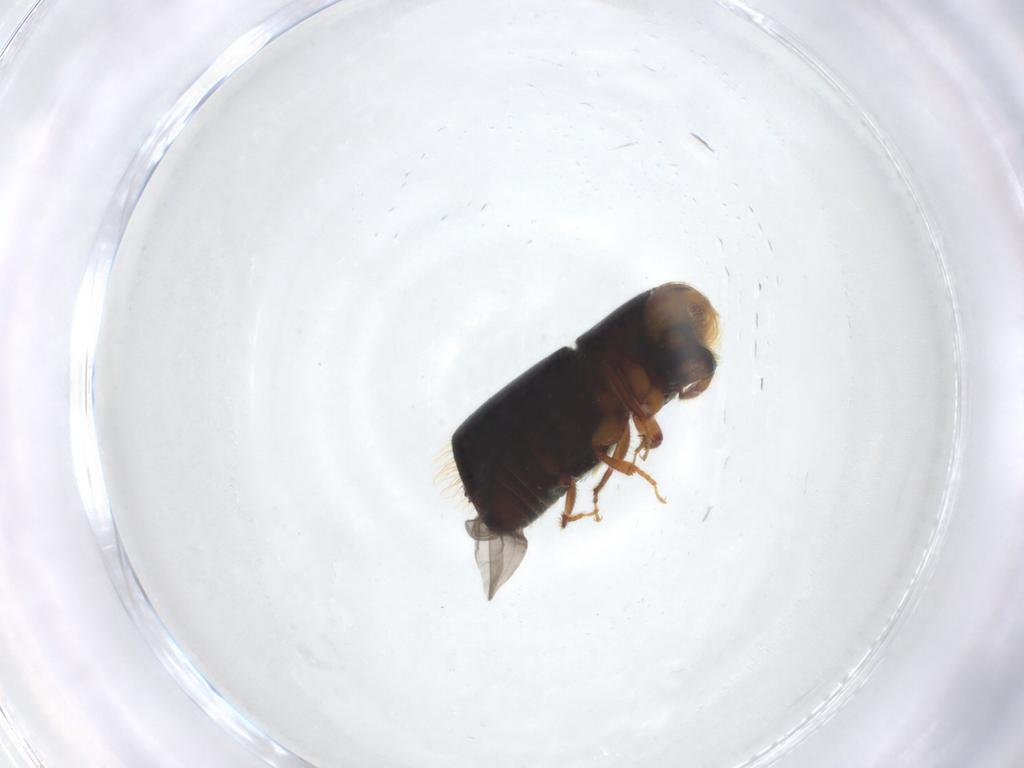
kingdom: Animalia
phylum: Arthropoda
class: Insecta
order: Coleoptera
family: Curculionidae
